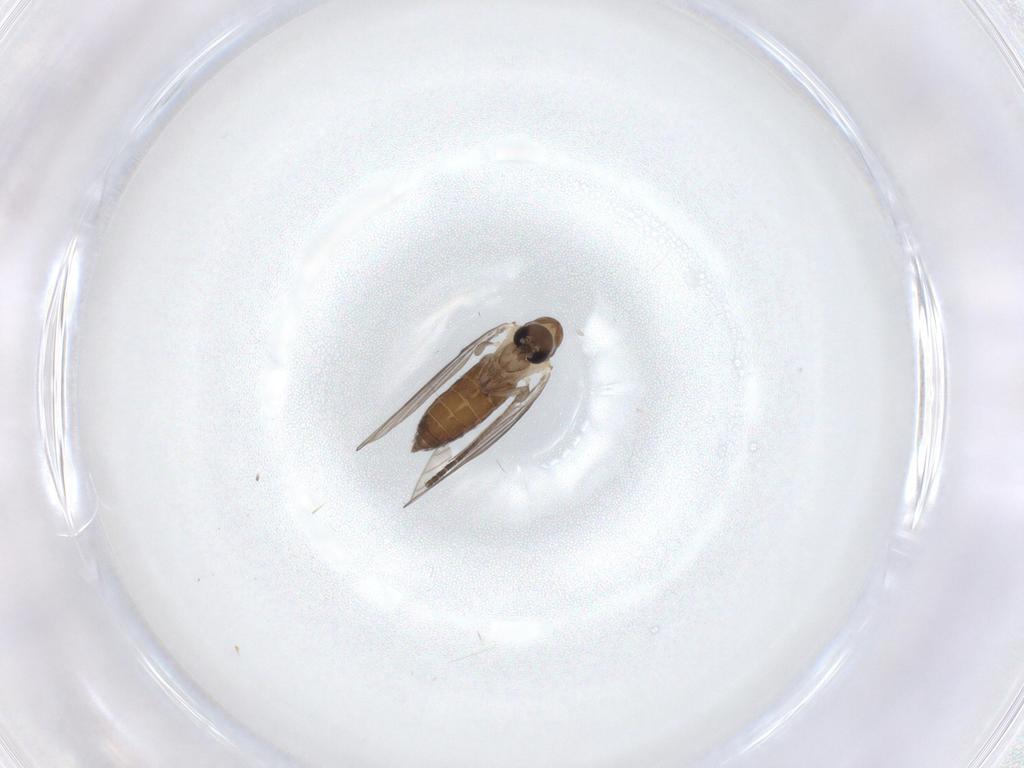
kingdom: Animalia
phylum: Arthropoda
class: Insecta
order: Diptera
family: Psychodidae
